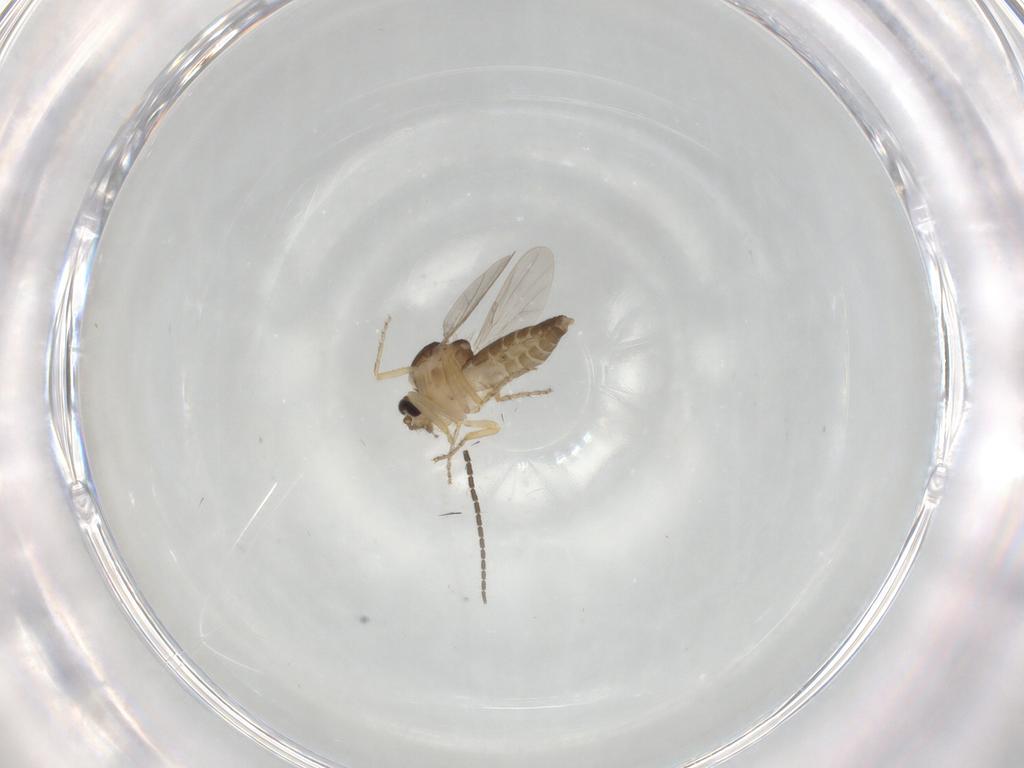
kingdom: Animalia
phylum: Arthropoda
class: Insecta
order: Diptera
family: Ceratopogonidae
